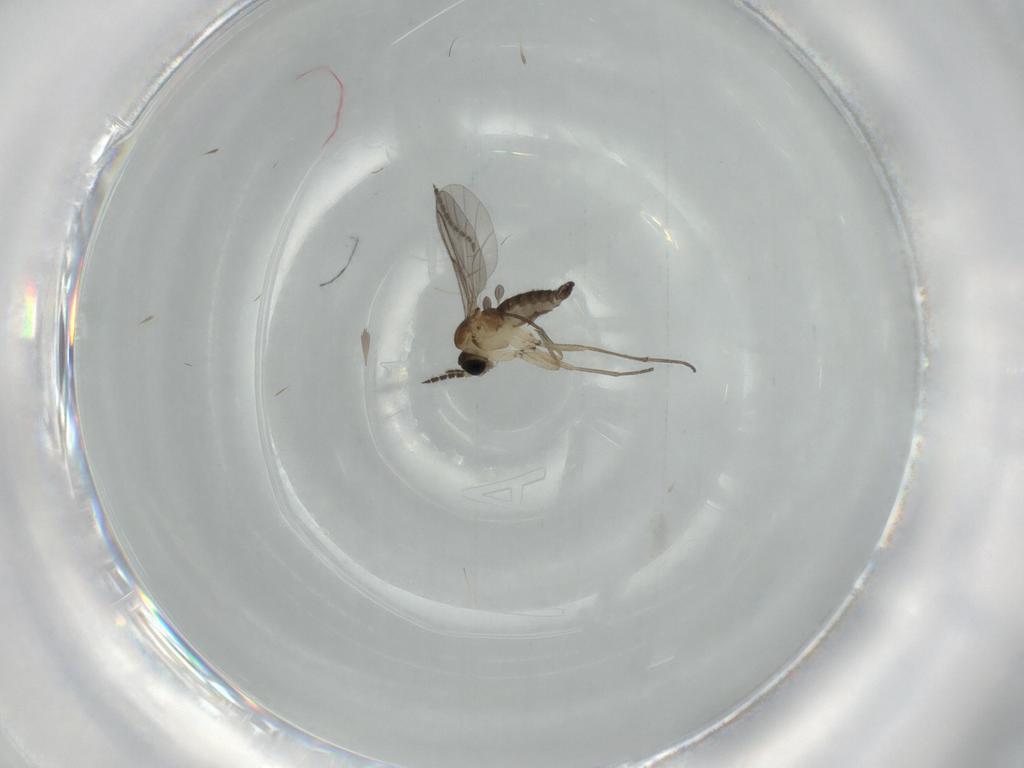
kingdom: Animalia
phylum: Arthropoda
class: Insecta
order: Diptera
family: Sciaridae
